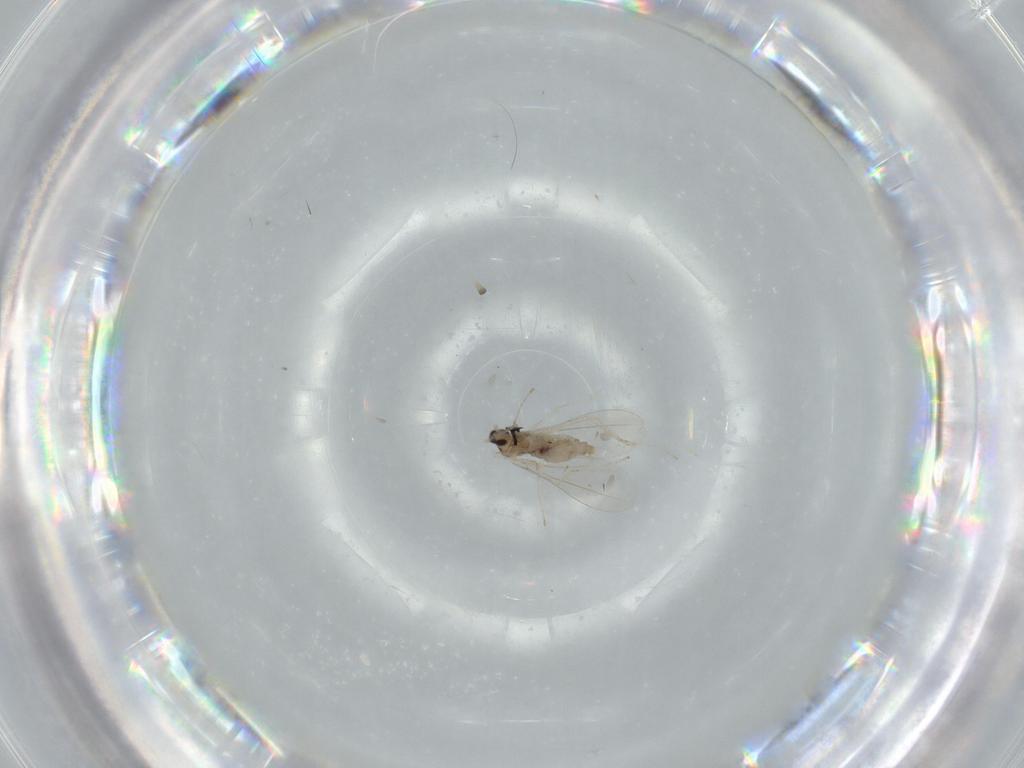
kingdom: Animalia
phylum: Arthropoda
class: Insecta
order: Diptera
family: Cecidomyiidae
